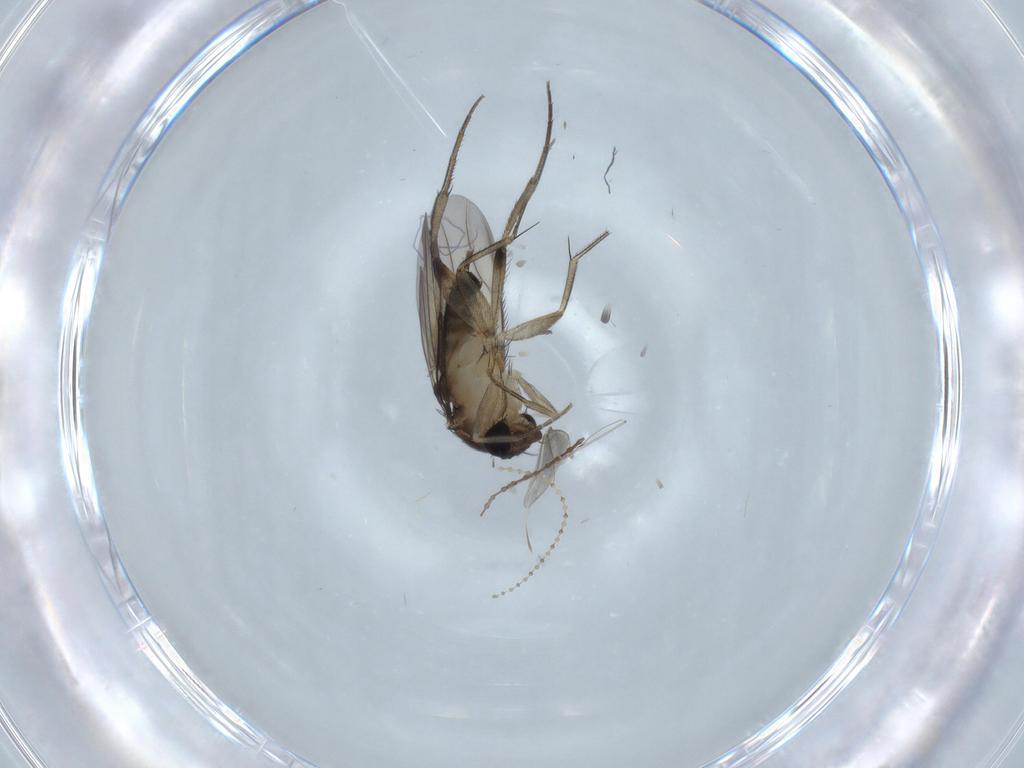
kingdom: Animalia
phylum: Arthropoda
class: Insecta
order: Diptera
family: Ceratopogonidae
